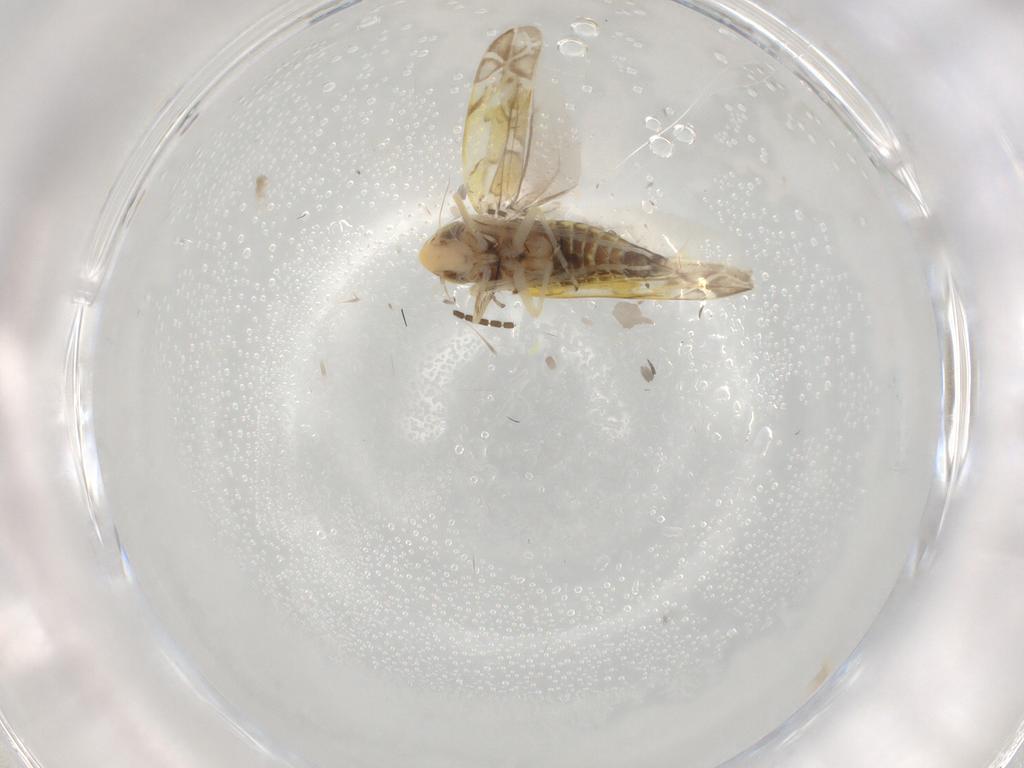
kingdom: Animalia
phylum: Arthropoda
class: Insecta
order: Hemiptera
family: Cicadellidae
